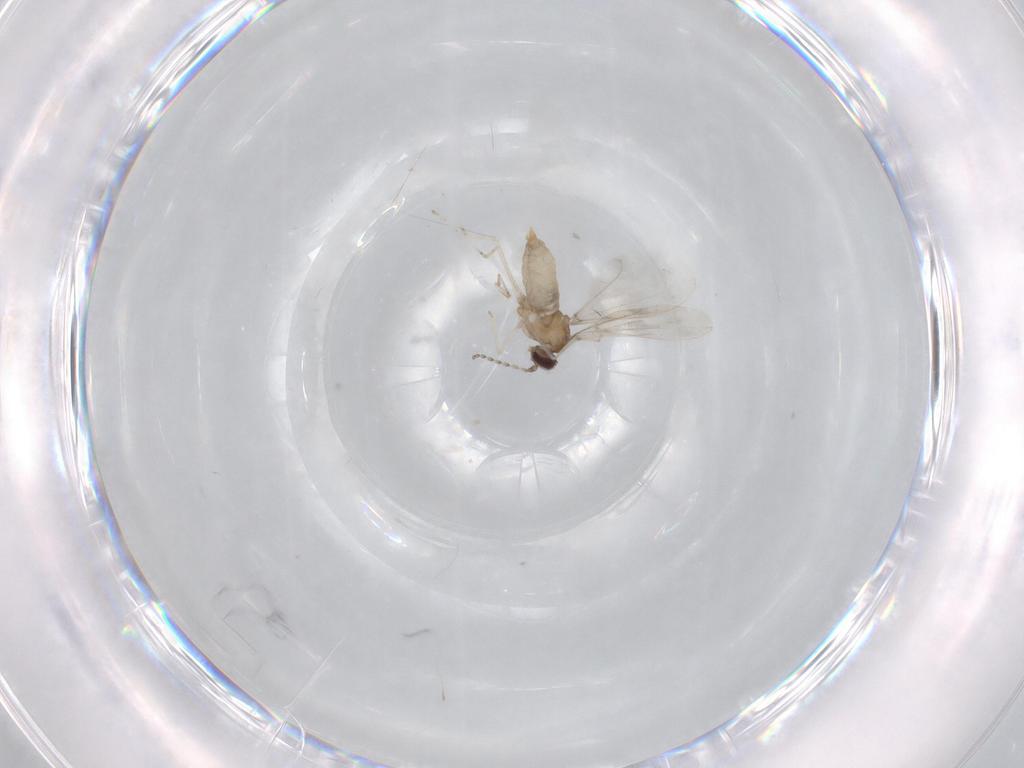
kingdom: Animalia
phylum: Arthropoda
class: Insecta
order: Diptera
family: Cecidomyiidae
